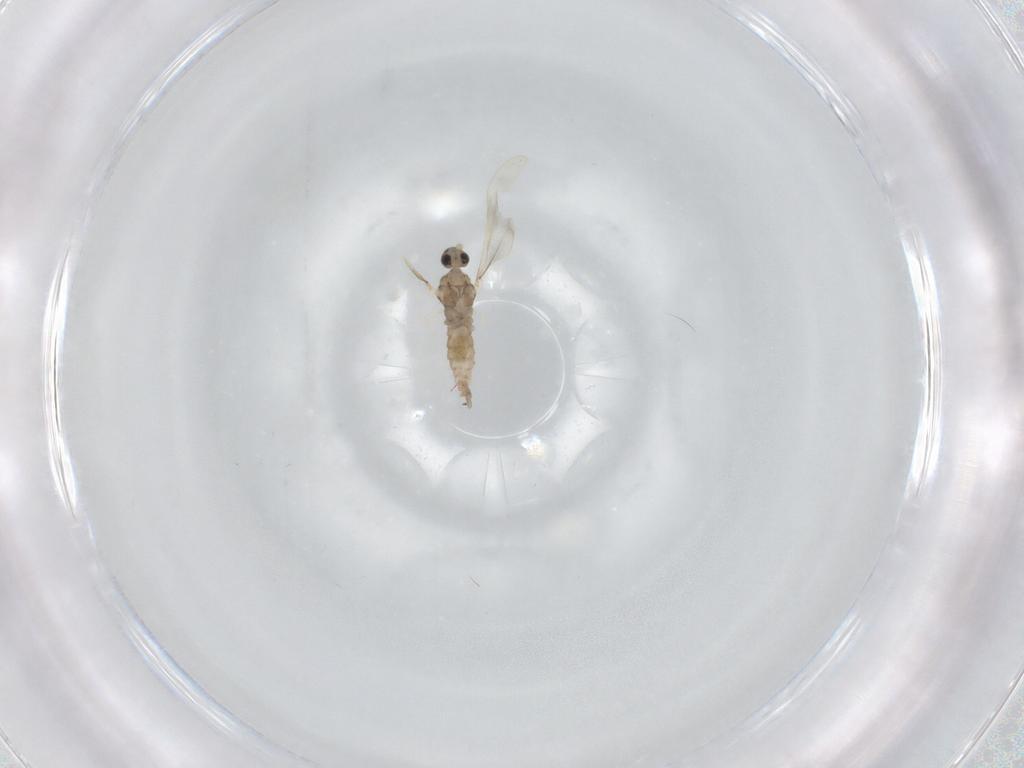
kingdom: Animalia
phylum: Arthropoda
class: Insecta
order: Diptera
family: Cecidomyiidae
